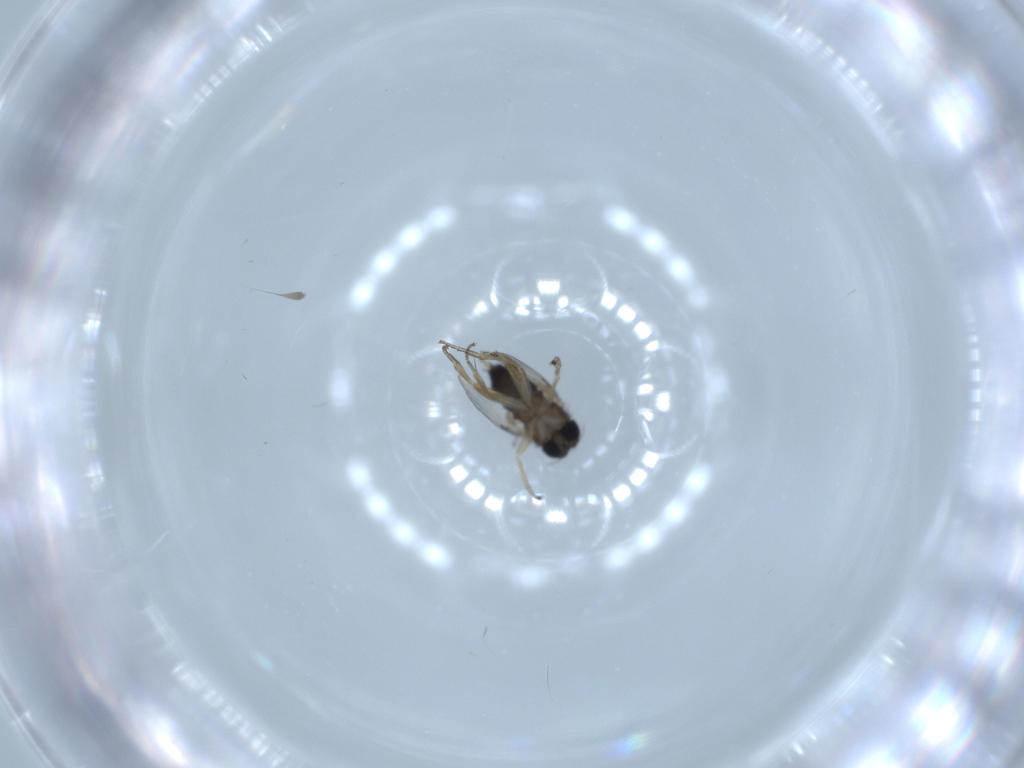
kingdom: Animalia
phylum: Arthropoda
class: Insecta
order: Diptera
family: Phoridae
